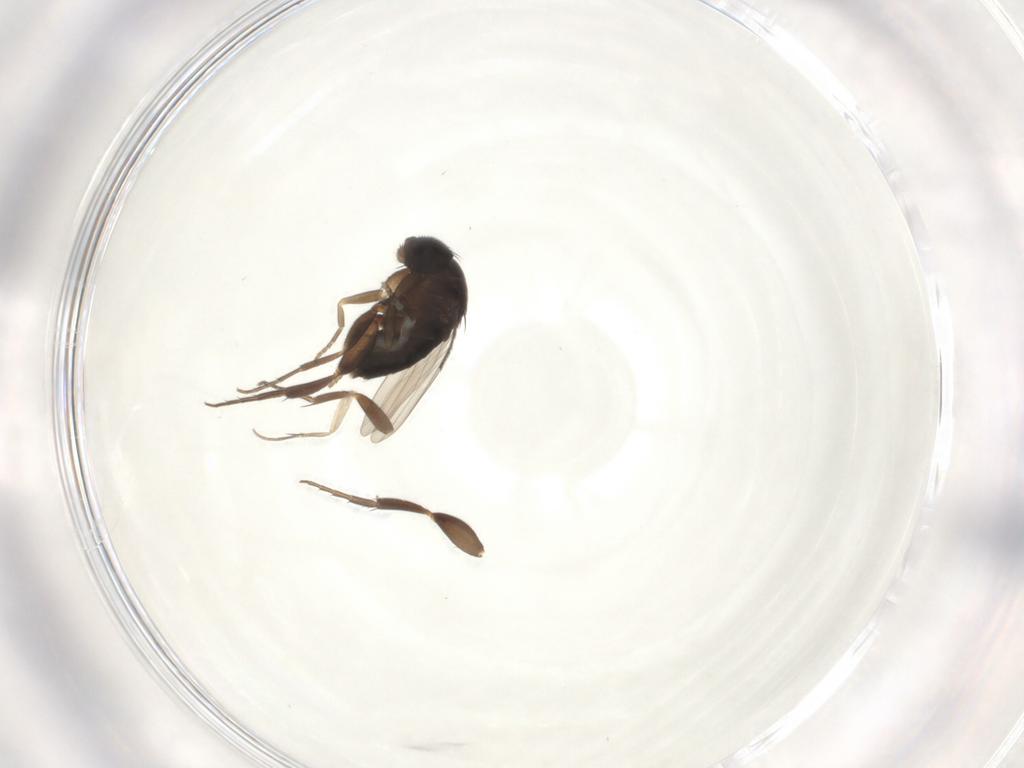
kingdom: Animalia
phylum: Arthropoda
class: Insecta
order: Diptera
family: Phoridae
